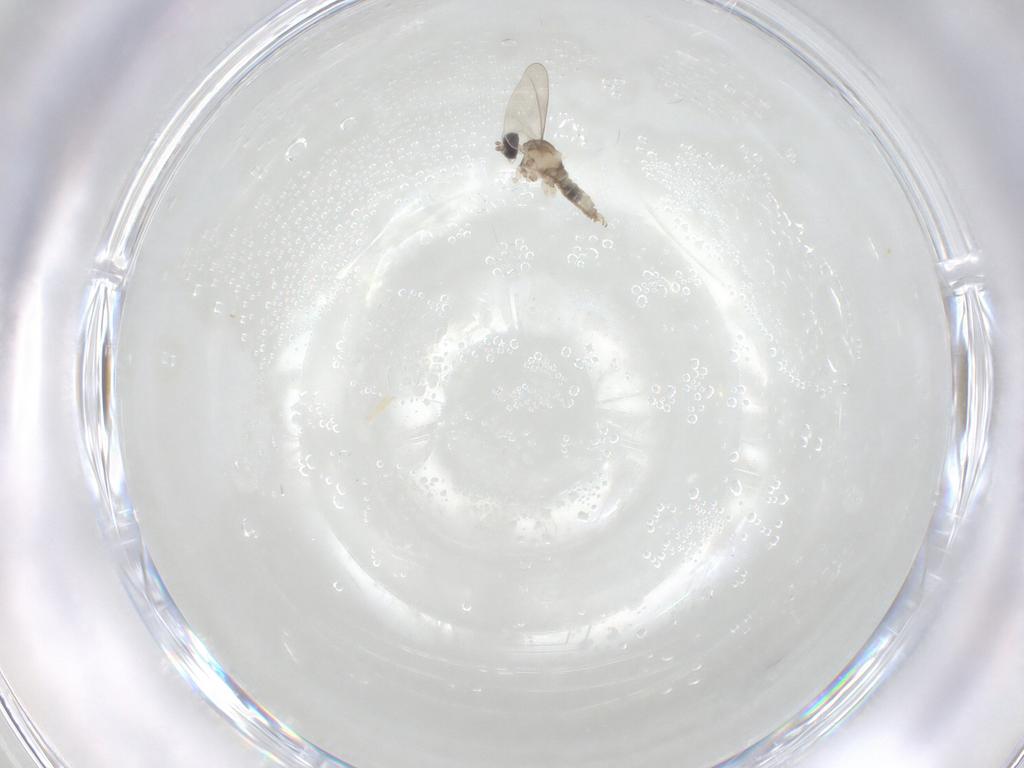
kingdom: Animalia
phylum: Arthropoda
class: Insecta
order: Diptera
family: Cecidomyiidae
